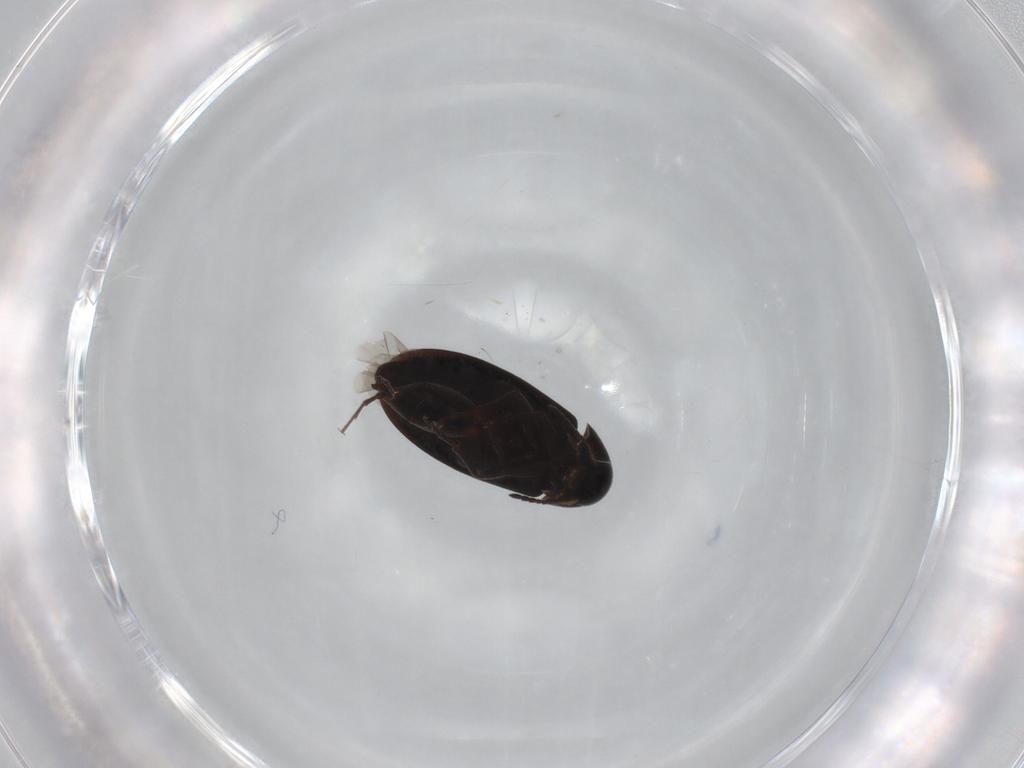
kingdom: Animalia
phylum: Arthropoda
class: Insecta
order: Coleoptera
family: Scraptiidae
